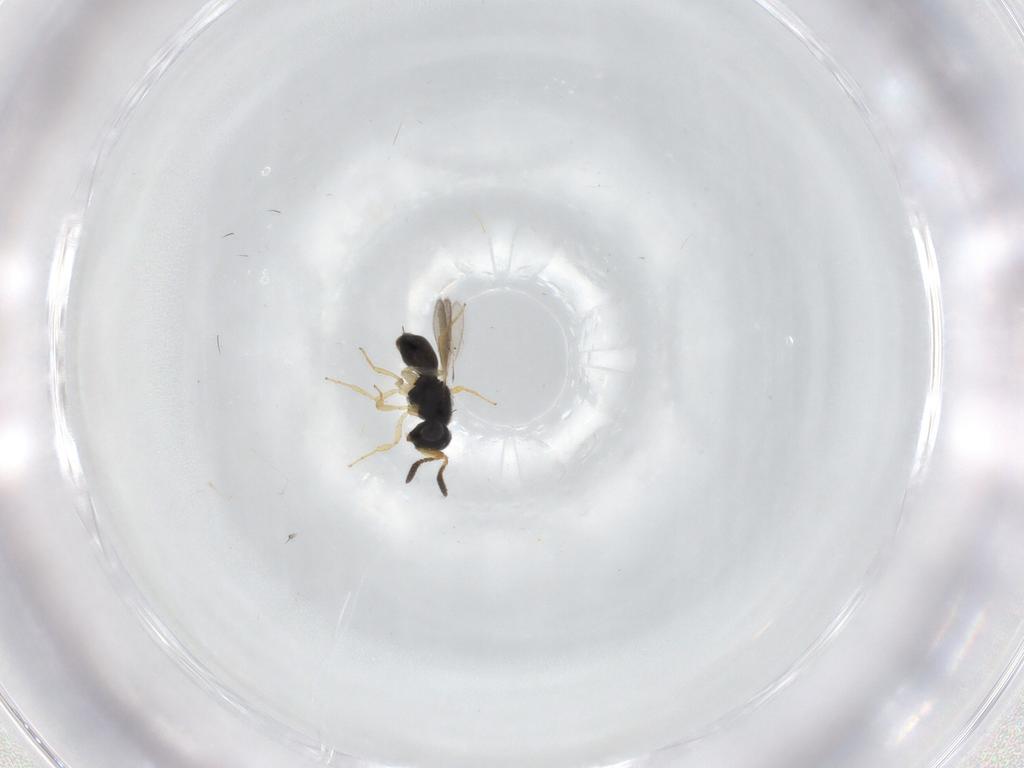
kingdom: Animalia
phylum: Arthropoda
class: Insecta
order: Hymenoptera
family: Scelionidae
